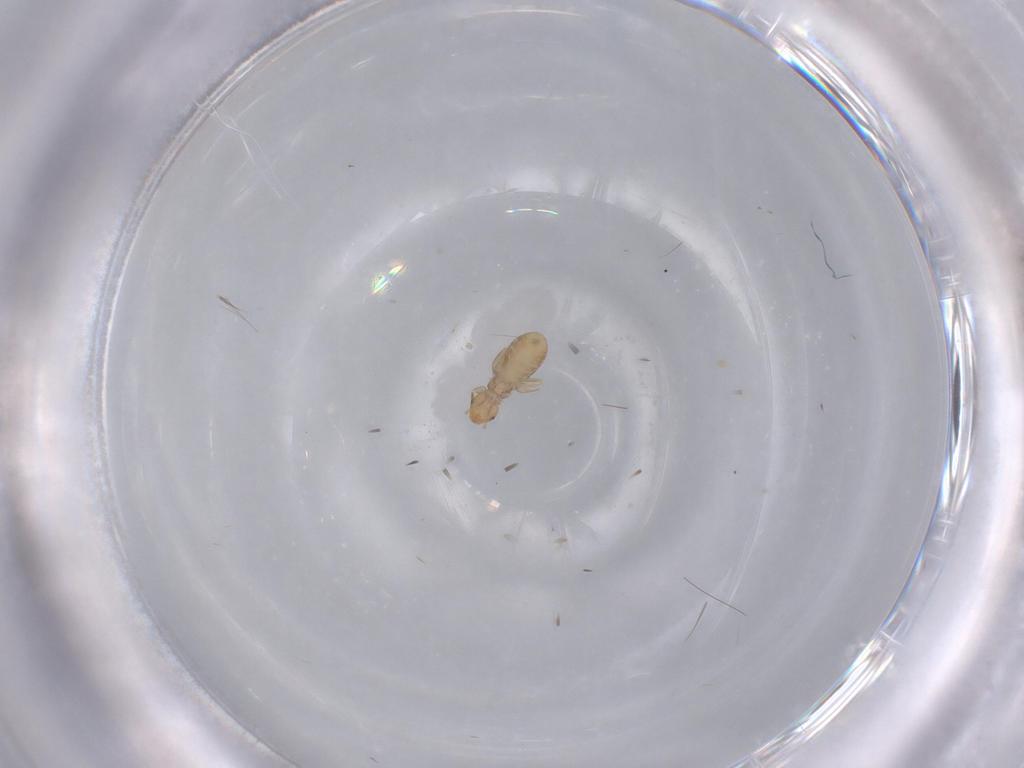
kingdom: Animalia
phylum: Arthropoda
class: Insecta
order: Psocodea
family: Liposcelididae
